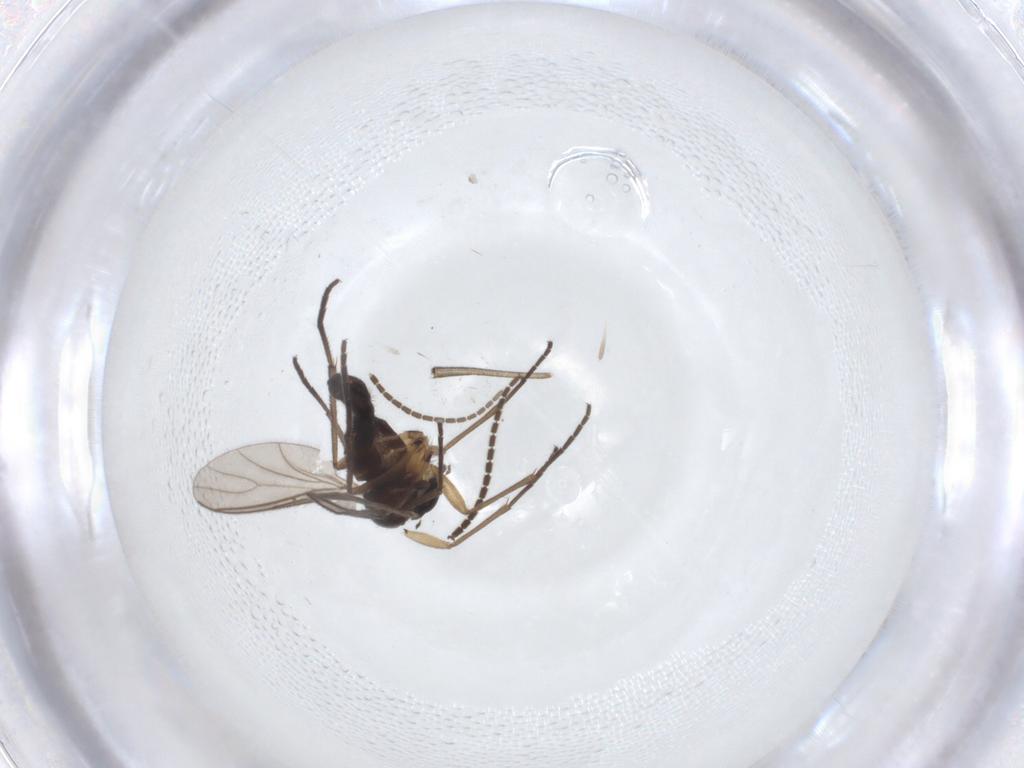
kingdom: Animalia
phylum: Arthropoda
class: Insecta
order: Diptera
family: Sciaridae
